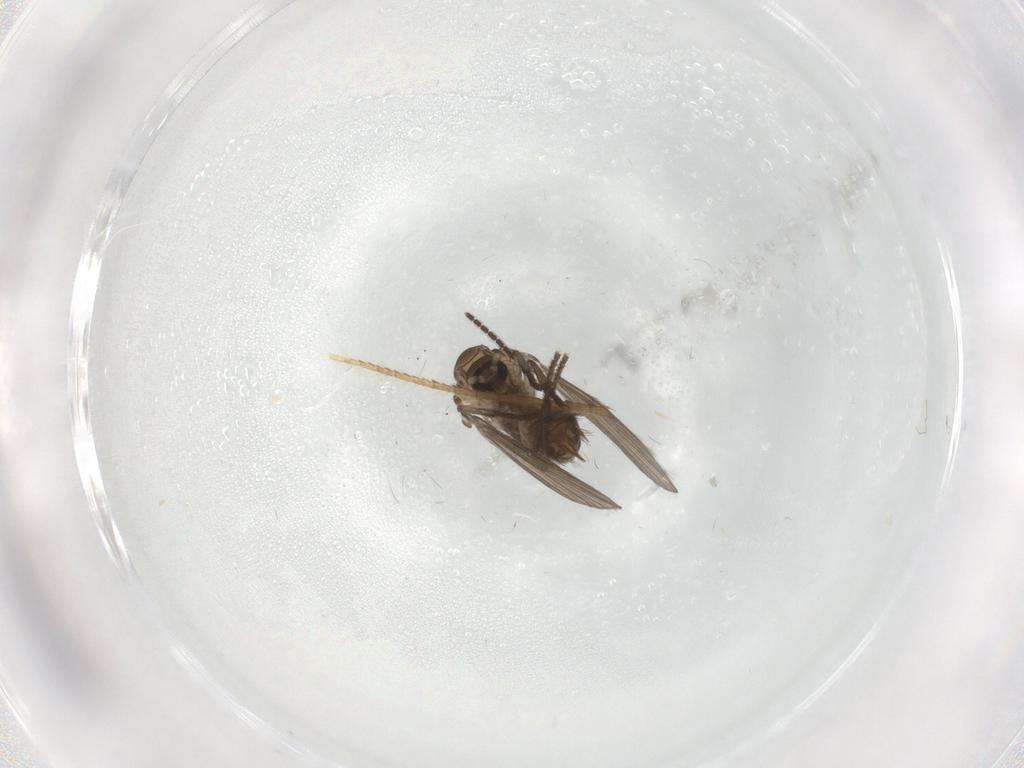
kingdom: Animalia
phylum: Arthropoda
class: Insecta
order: Diptera
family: Psychodidae
